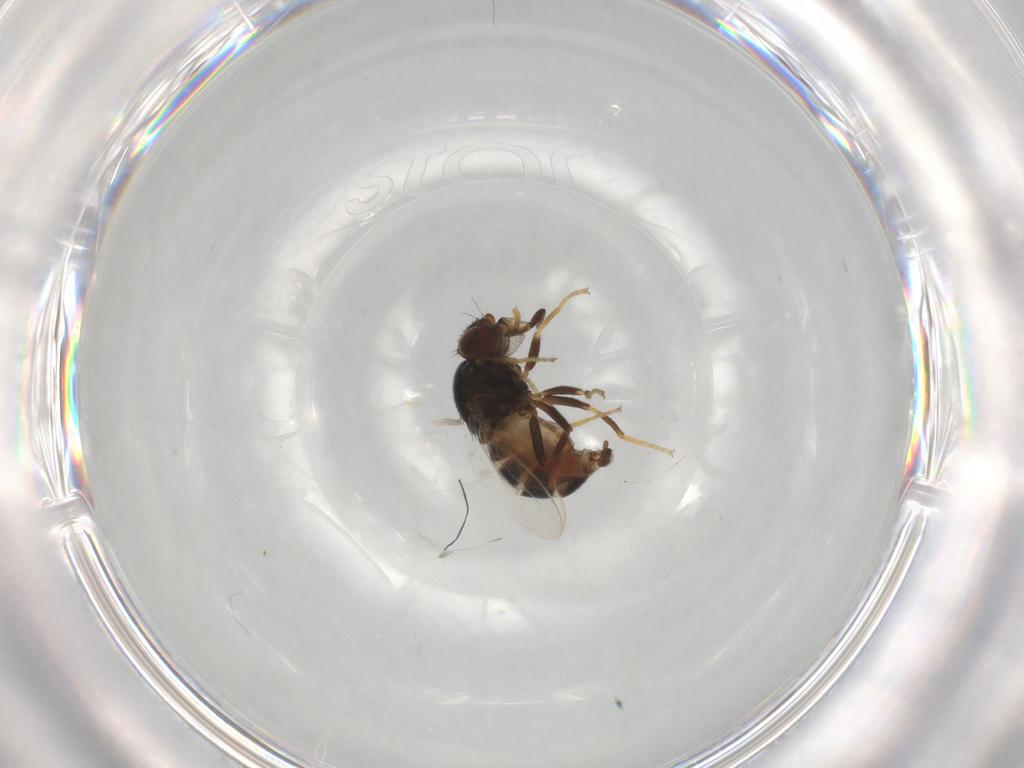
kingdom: Animalia
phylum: Arthropoda
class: Insecta
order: Diptera
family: Chloropidae
